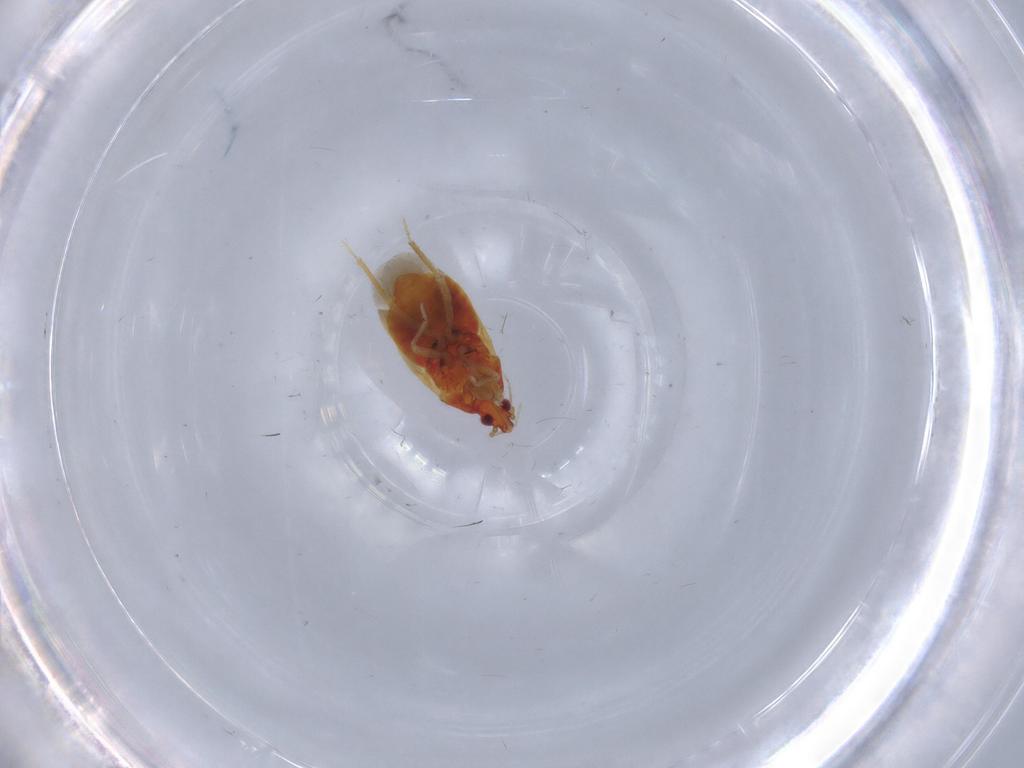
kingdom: Animalia
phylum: Arthropoda
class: Insecta
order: Hemiptera
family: Lasiochilidae
